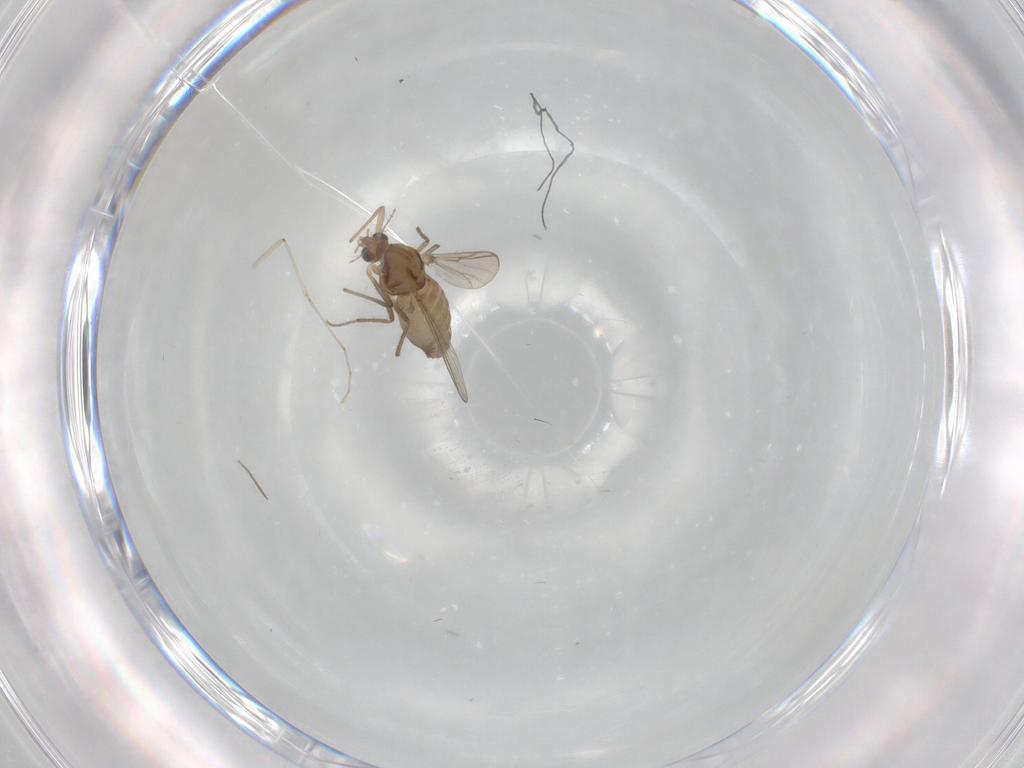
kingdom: Animalia
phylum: Arthropoda
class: Insecta
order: Diptera
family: Chironomidae
